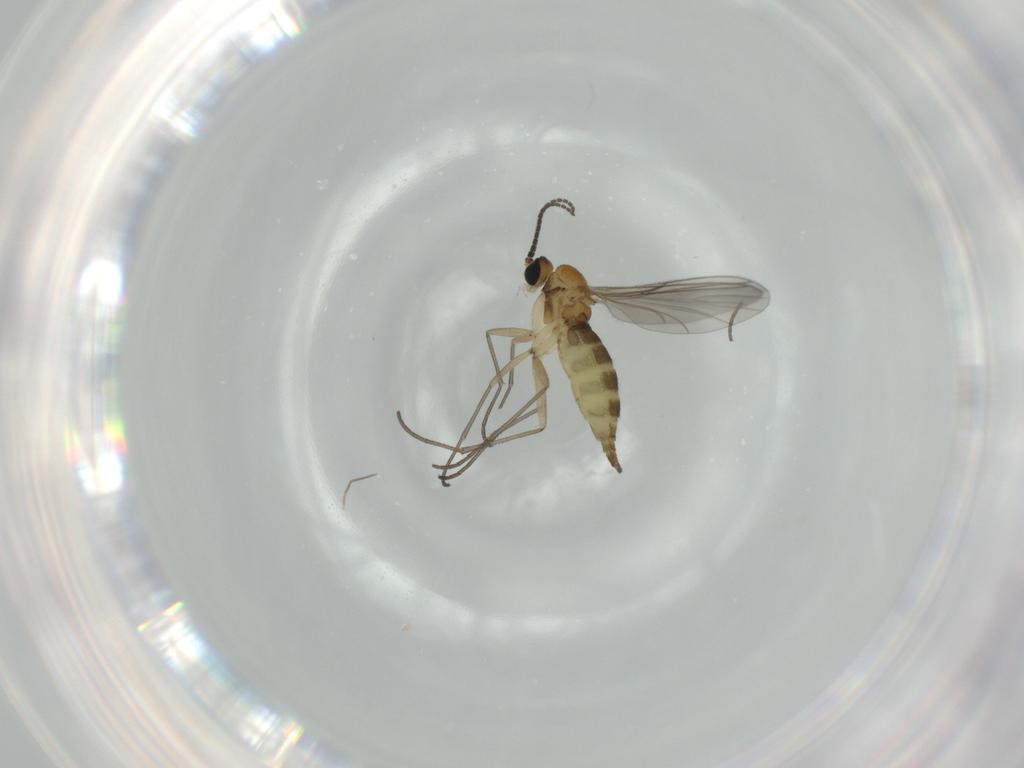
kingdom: Animalia
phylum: Arthropoda
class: Insecta
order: Diptera
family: Chironomidae
